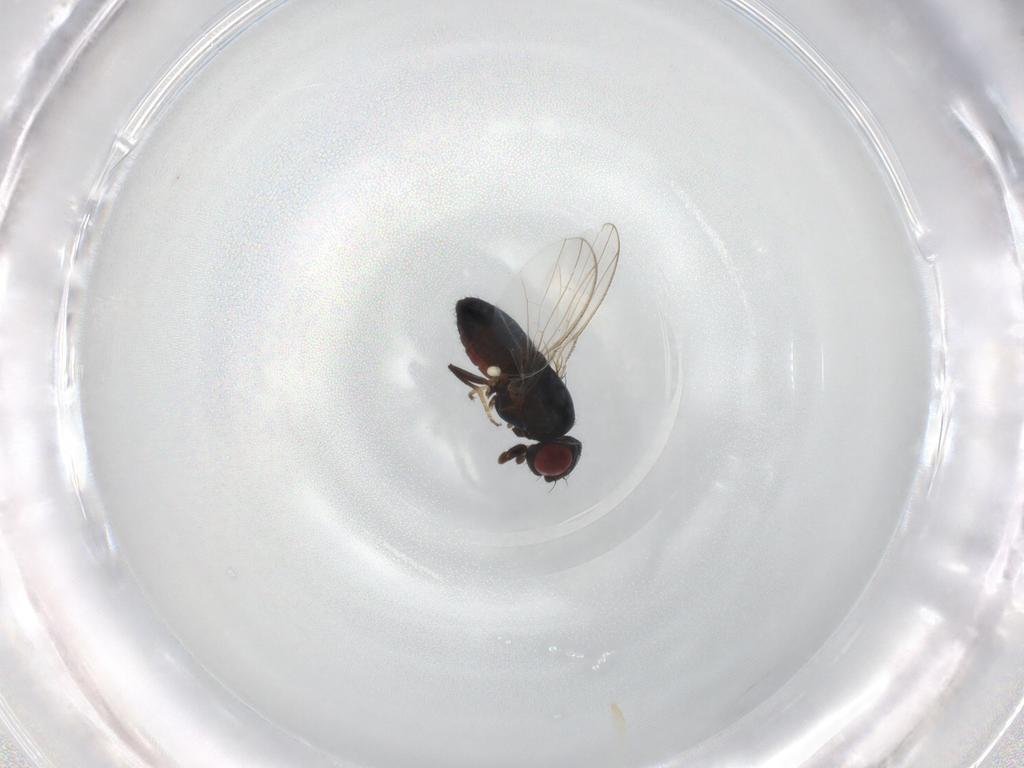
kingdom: Animalia
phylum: Arthropoda
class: Insecta
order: Diptera
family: Carnidae
